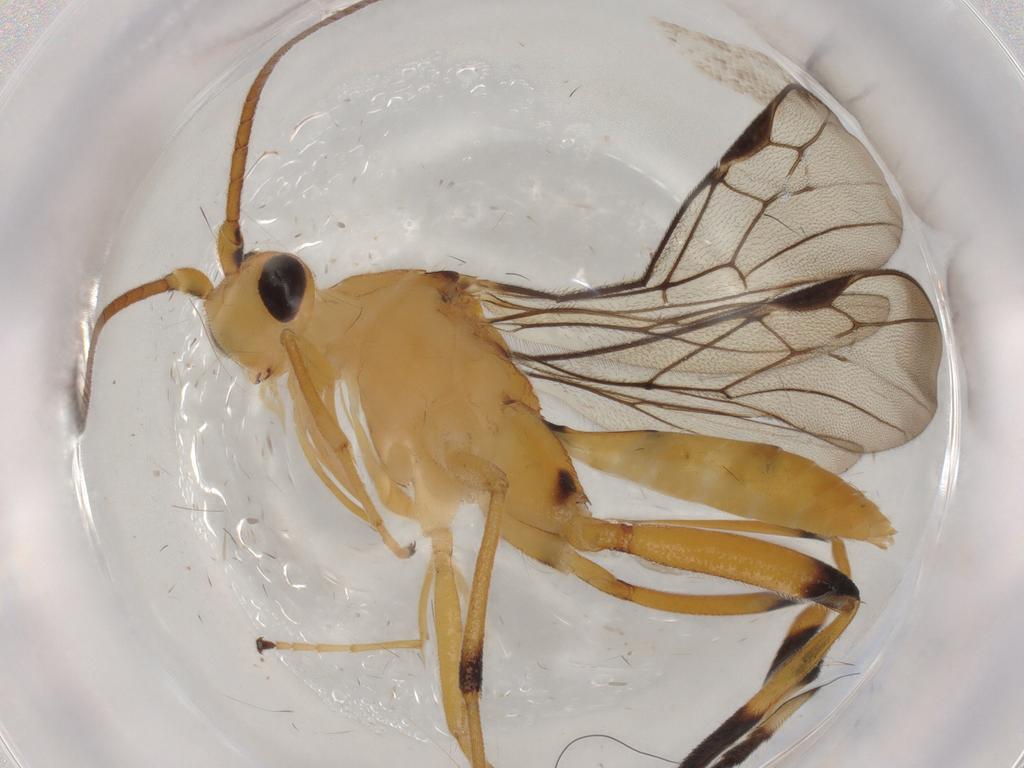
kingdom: Animalia
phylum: Arthropoda
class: Insecta
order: Hymenoptera
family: Braconidae
